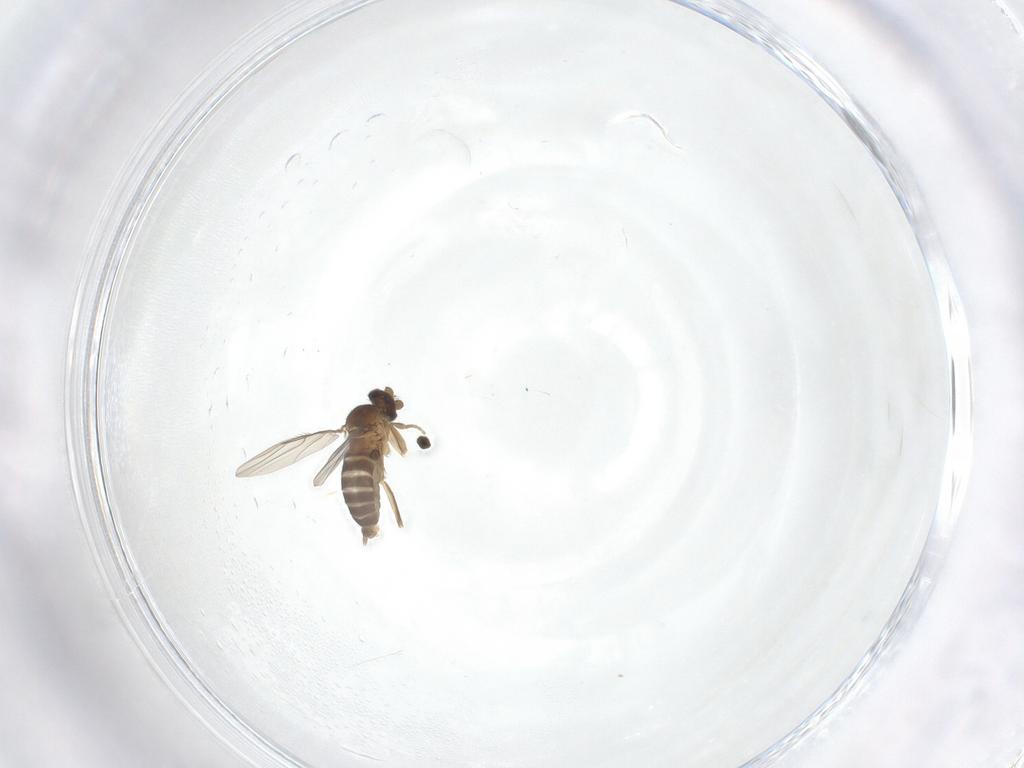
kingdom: Animalia
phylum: Arthropoda
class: Insecta
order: Diptera
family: Phoridae
